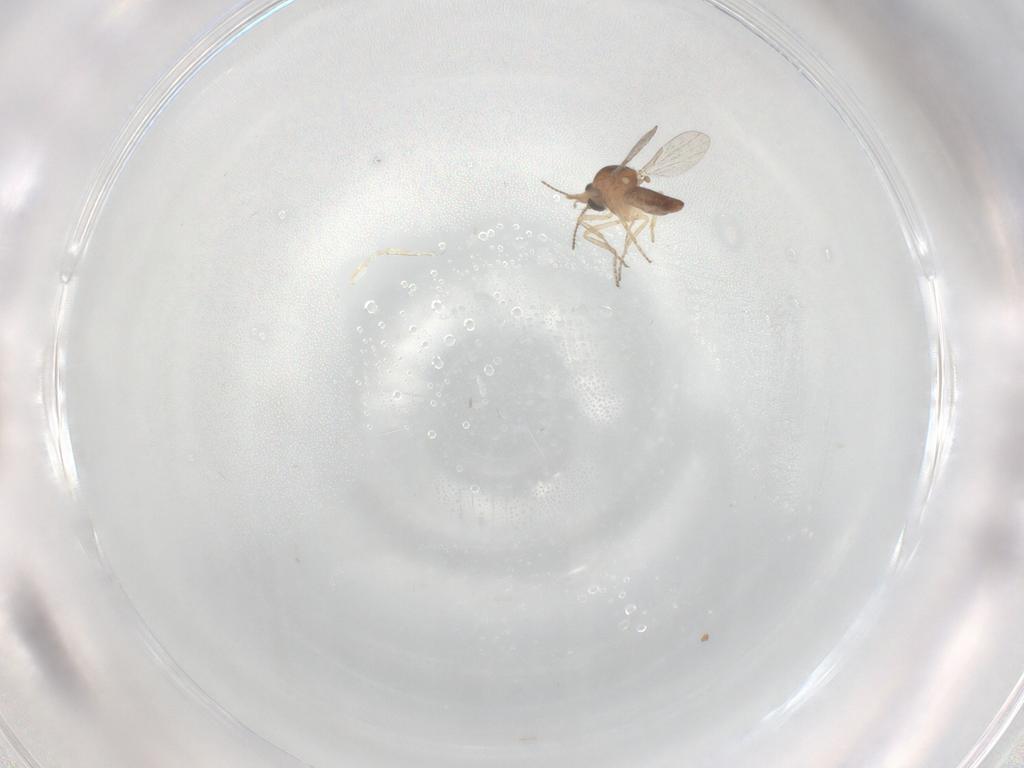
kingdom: Animalia
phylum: Arthropoda
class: Insecta
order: Diptera
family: Ceratopogonidae
